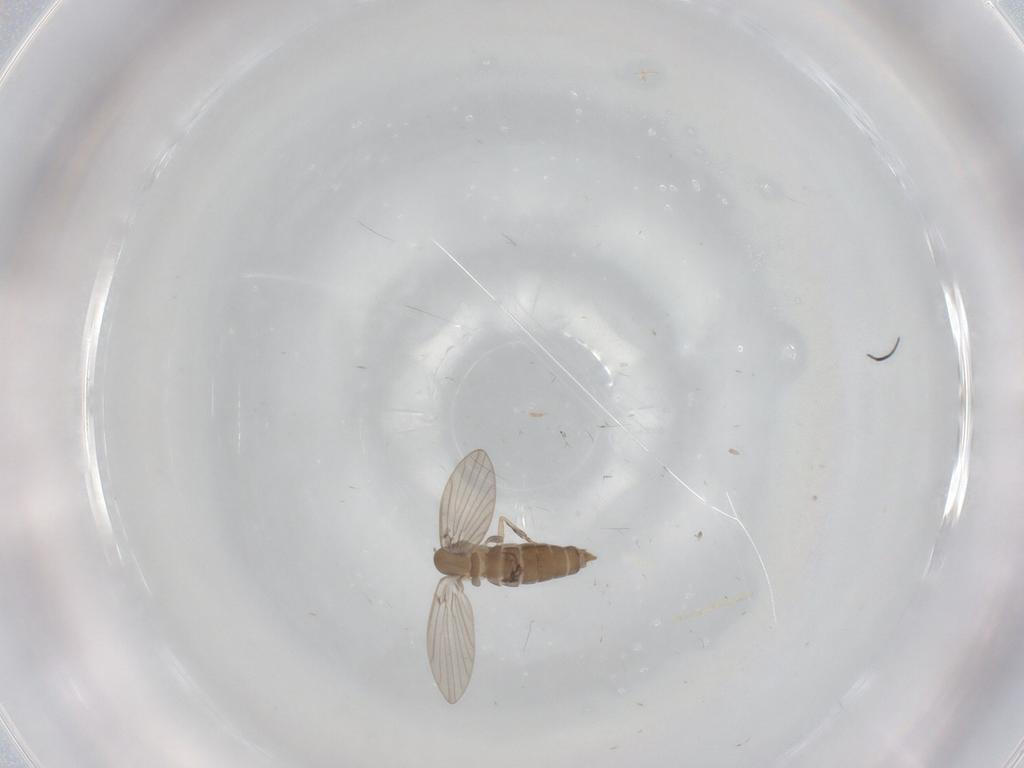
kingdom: Animalia
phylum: Arthropoda
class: Insecta
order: Diptera
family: Psychodidae
